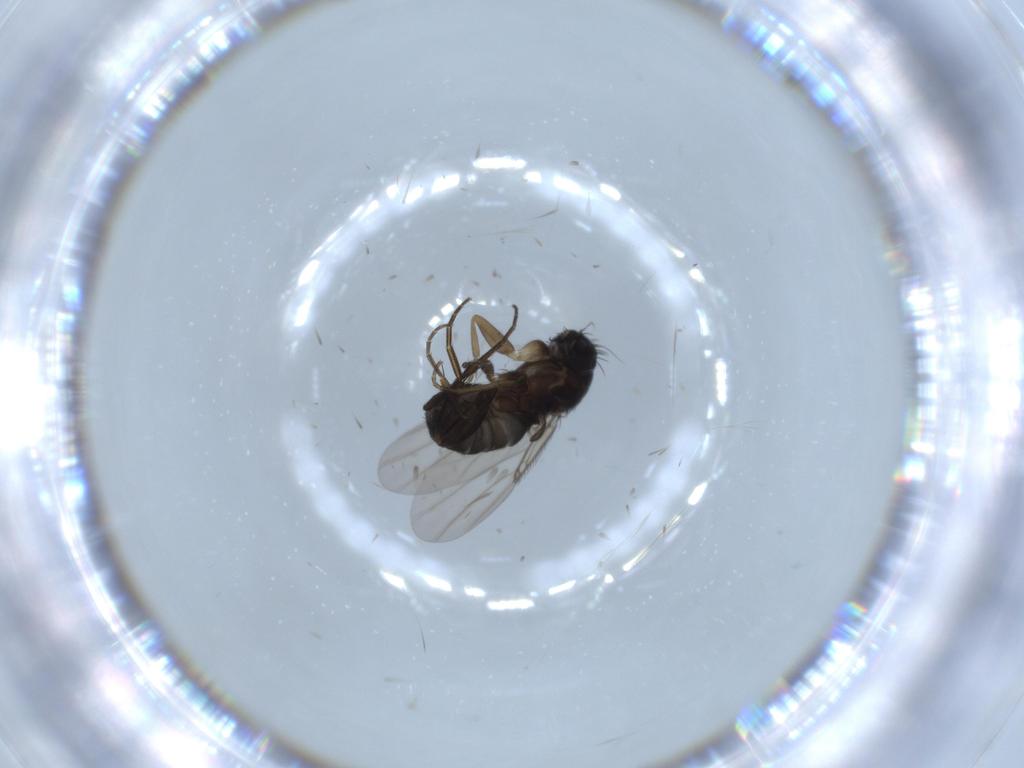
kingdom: Animalia
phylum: Arthropoda
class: Insecta
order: Diptera
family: Phoridae
